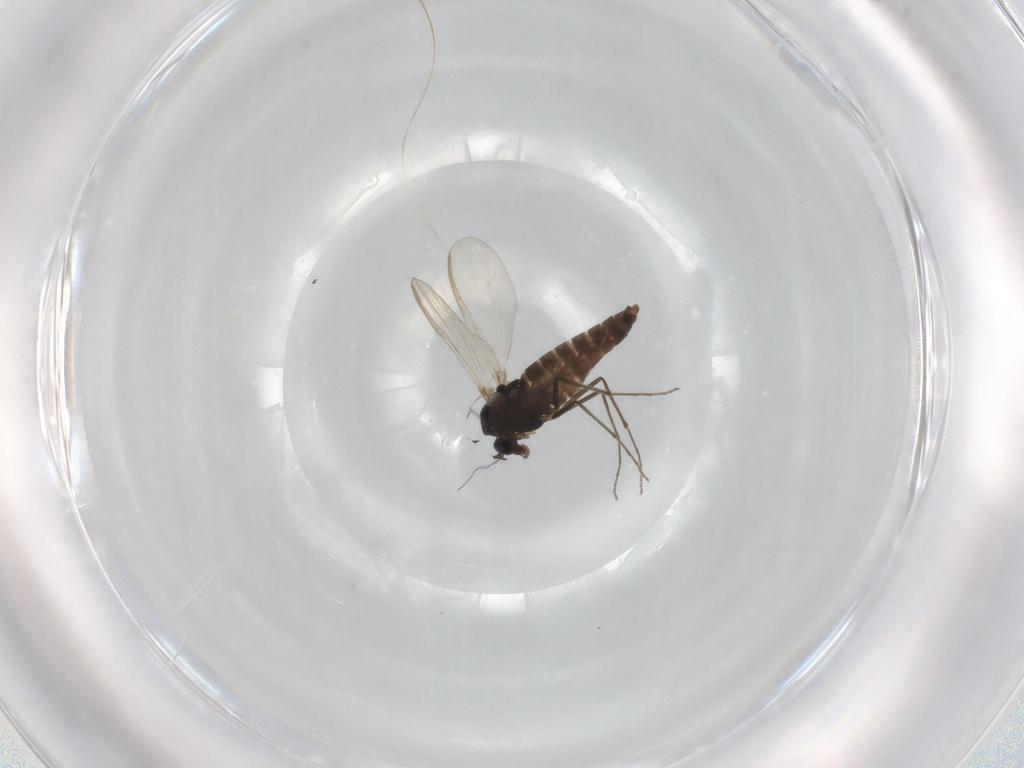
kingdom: Animalia
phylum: Arthropoda
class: Insecta
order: Diptera
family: Chironomidae
